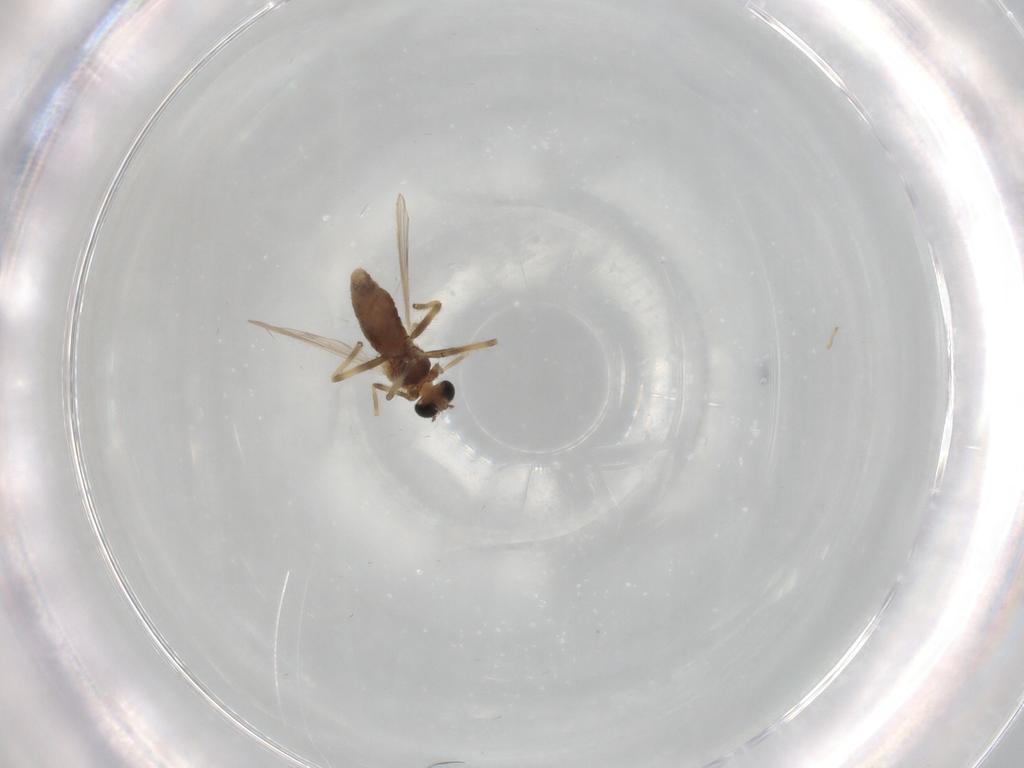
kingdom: Animalia
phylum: Arthropoda
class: Insecta
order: Diptera
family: Chironomidae
